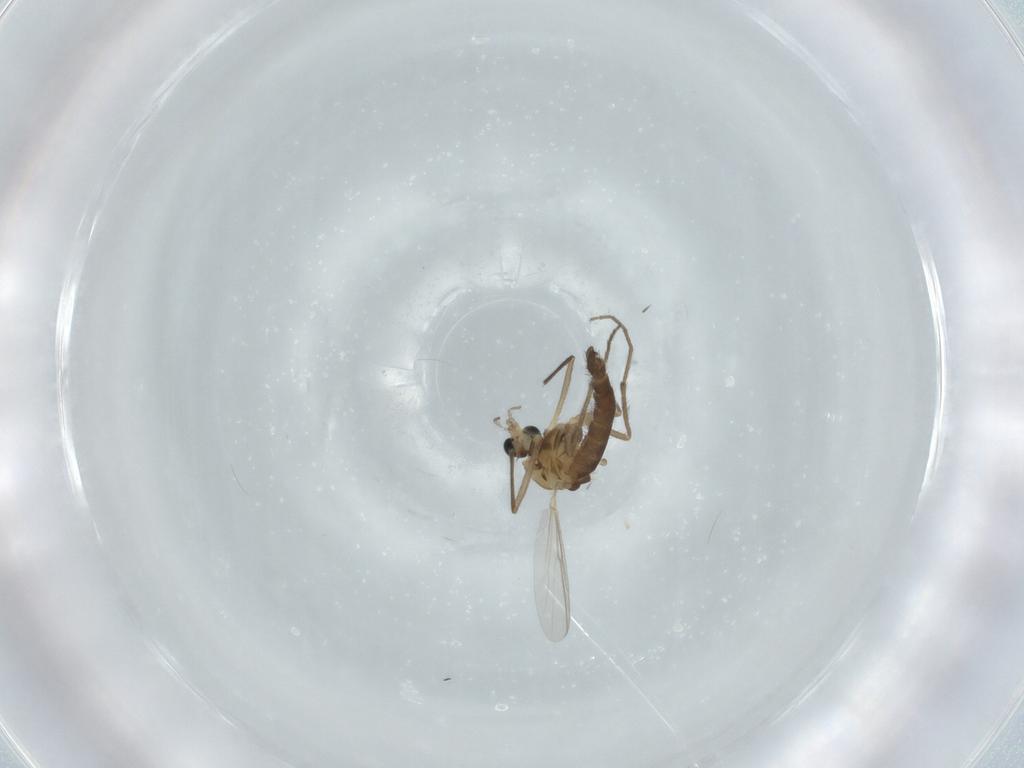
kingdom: Animalia
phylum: Arthropoda
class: Insecta
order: Diptera
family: Chironomidae
